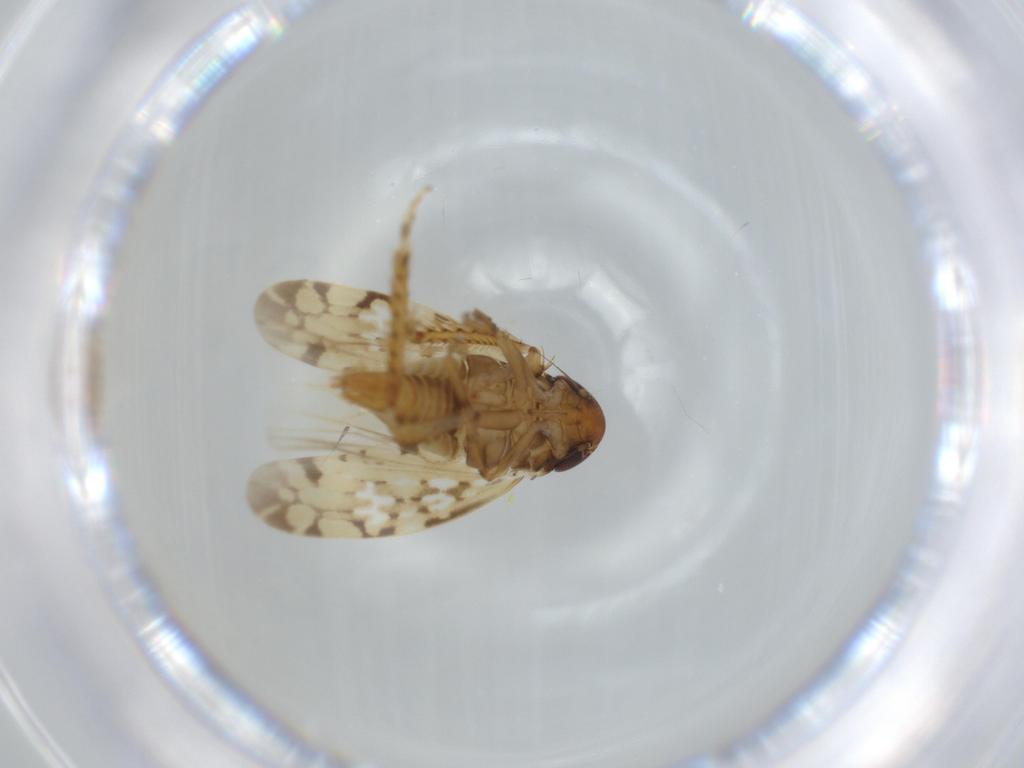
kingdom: Animalia
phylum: Arthropoda
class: Insecta
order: Hemiptera
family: Cicadellidae
